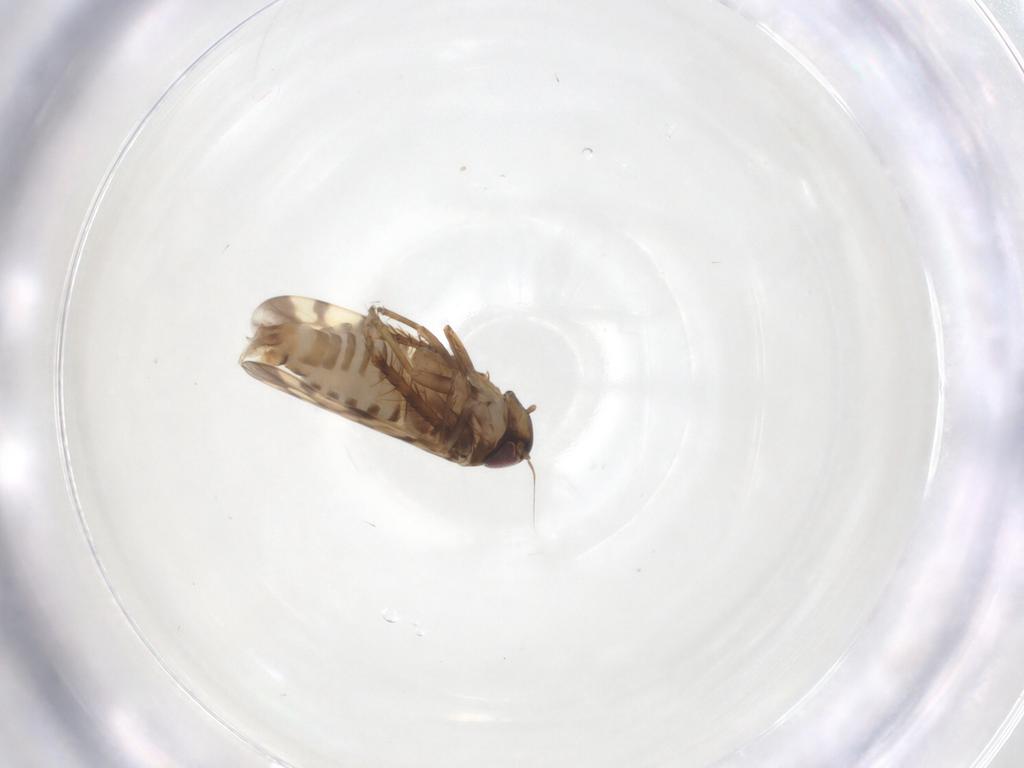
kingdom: Animalia
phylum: Arthropoda
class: Insecta
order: Hemiptera
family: Cicadellidae
